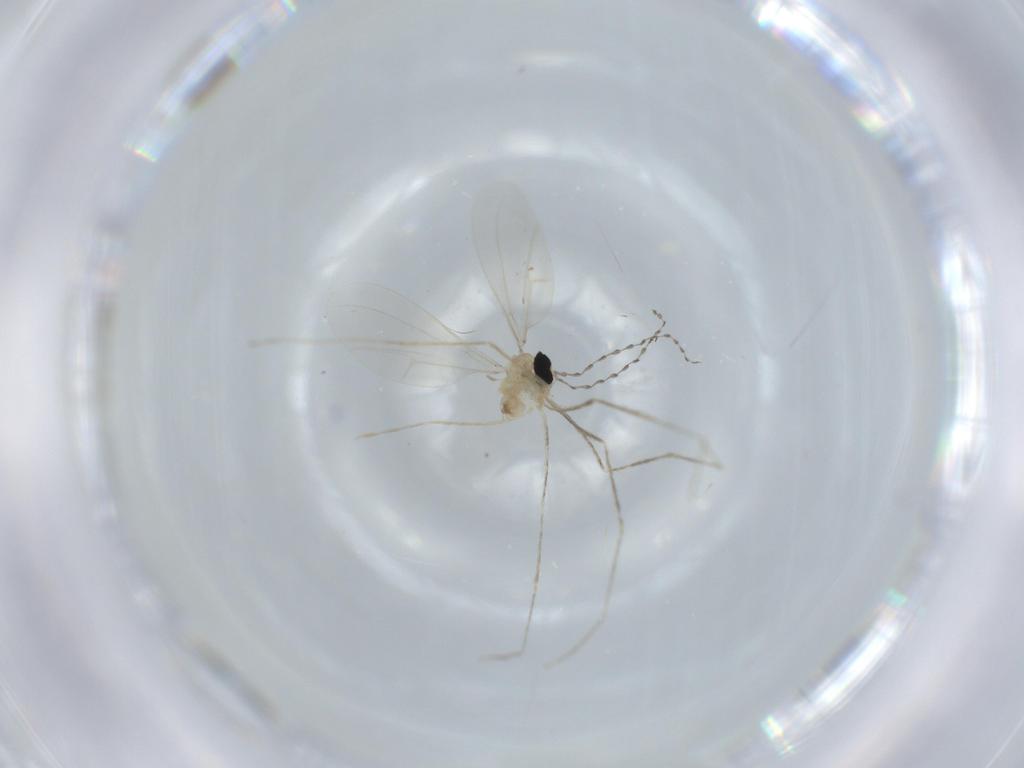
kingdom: Animalia
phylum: Arthropoda
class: Insecta
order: Diptera
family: Cecidomyiidae
